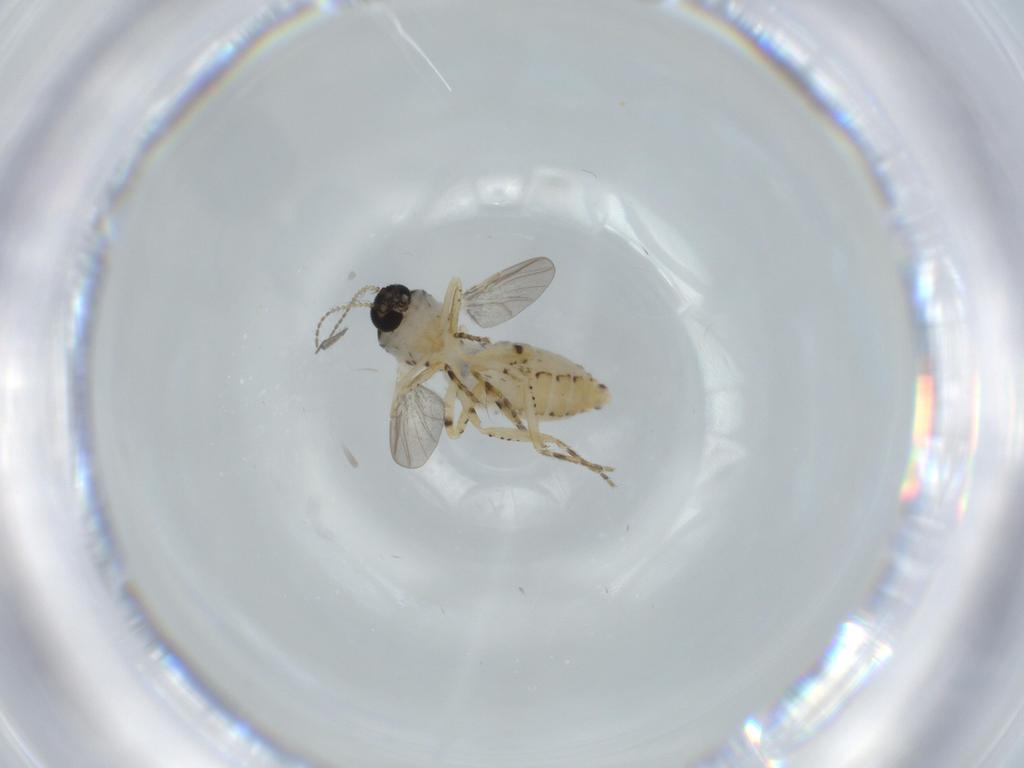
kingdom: Animalia
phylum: Arthropoda
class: Insecta
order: Diptera
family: Ceratopogonidae
